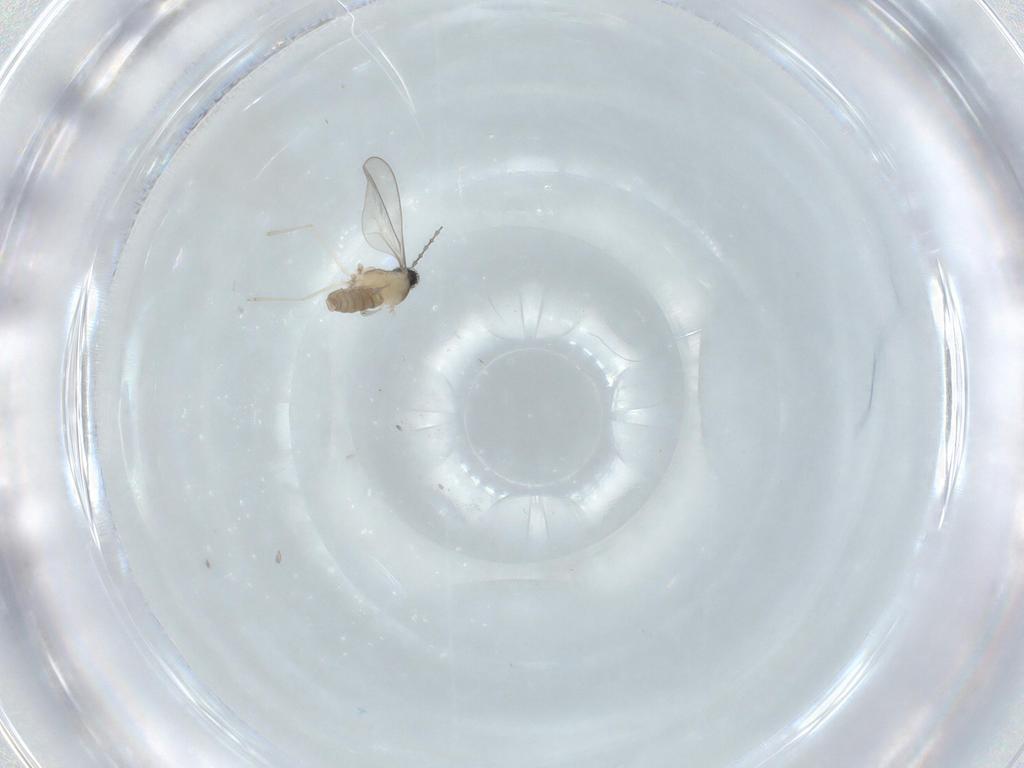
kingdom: Animalia
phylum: Arthropoda
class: Insecta
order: Diptera
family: Cecidomyiidae
